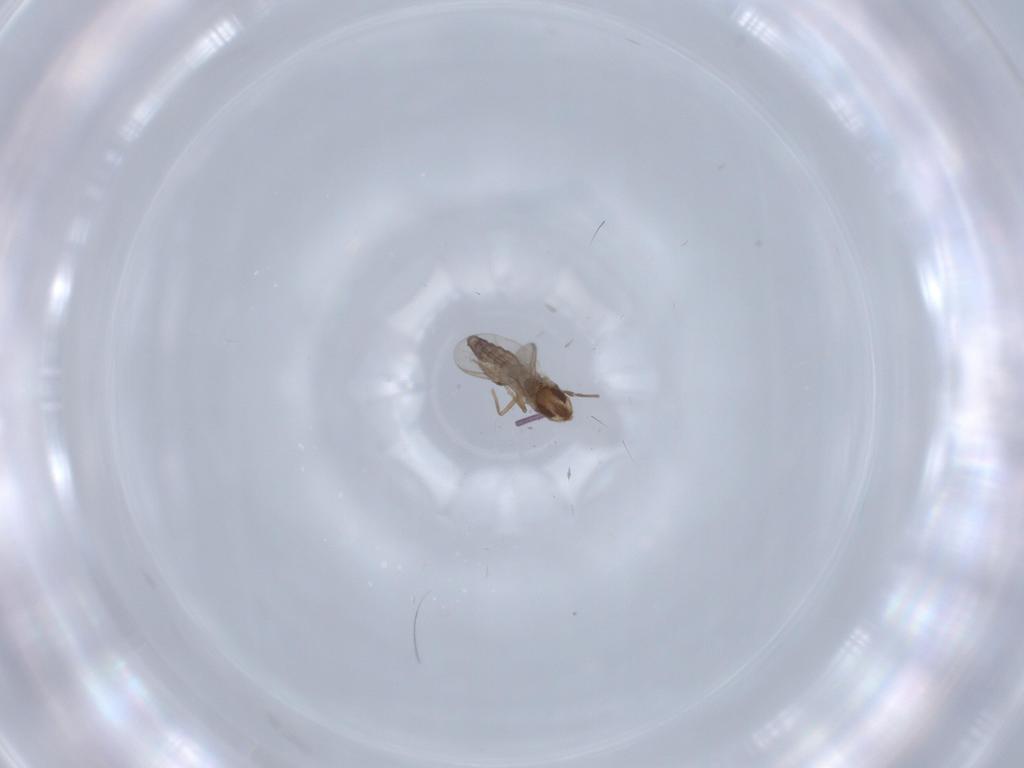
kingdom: Animalia
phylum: Arthropoda
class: Insecta
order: Diptera
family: Chironomidae
